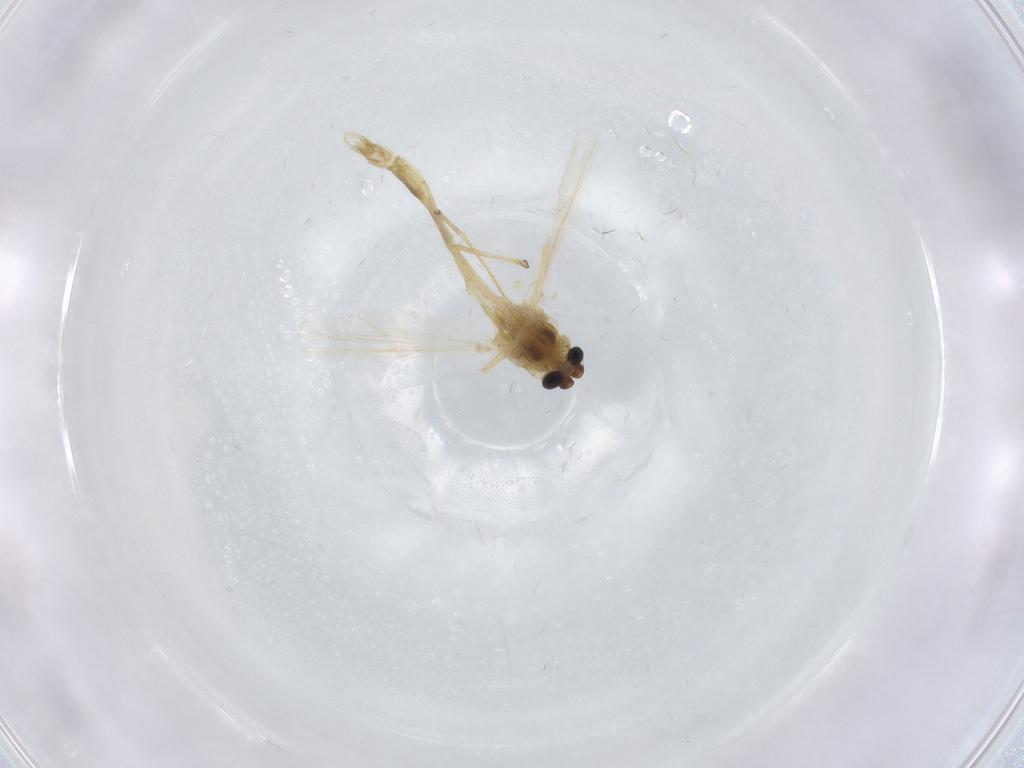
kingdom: Animalia
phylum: Arthropoda
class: Insecta
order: Diptera
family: Chironomidae
